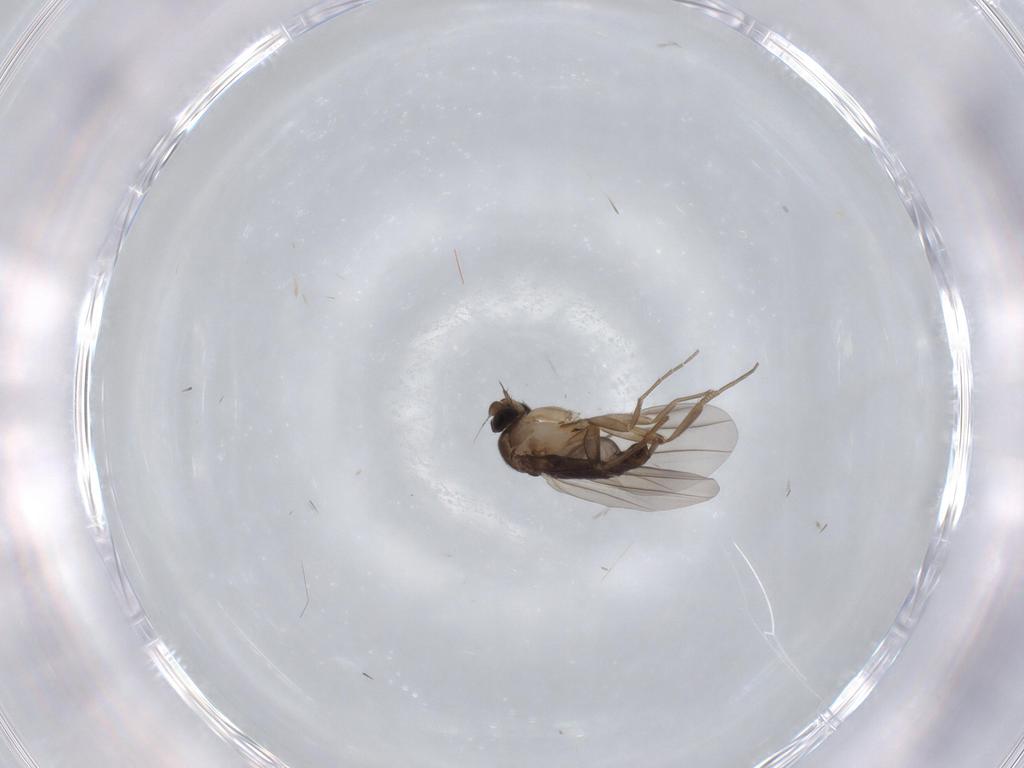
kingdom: Animalia
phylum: Arthropoda
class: Insecta
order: Diptera
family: Phoridae
